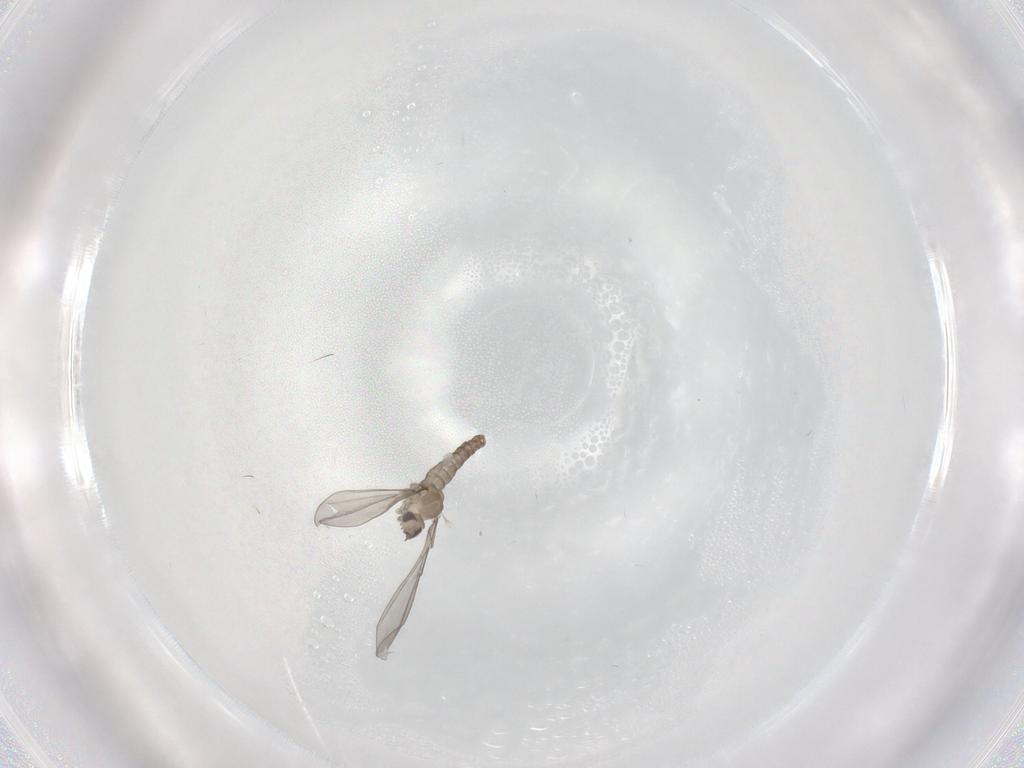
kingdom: Animalia
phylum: Arthropoda
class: Insecta
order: Diptera
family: Cecidomyiidae
